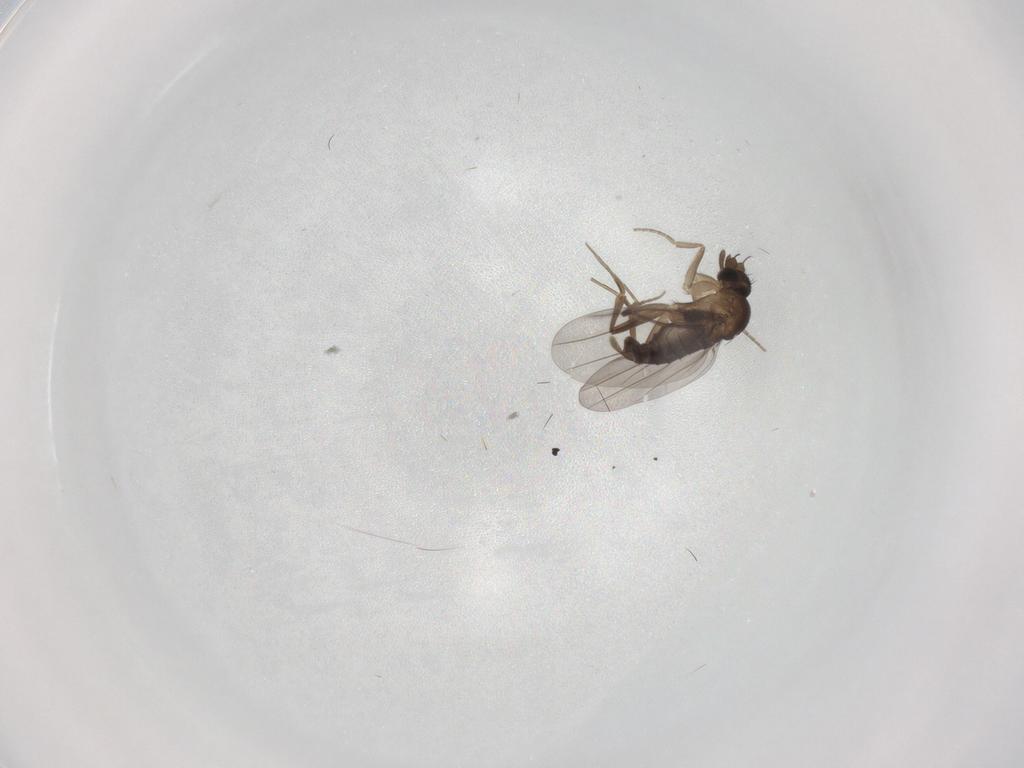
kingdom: Animalia
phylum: Arthropoda
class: Insecta
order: Diptera
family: Phoridae
